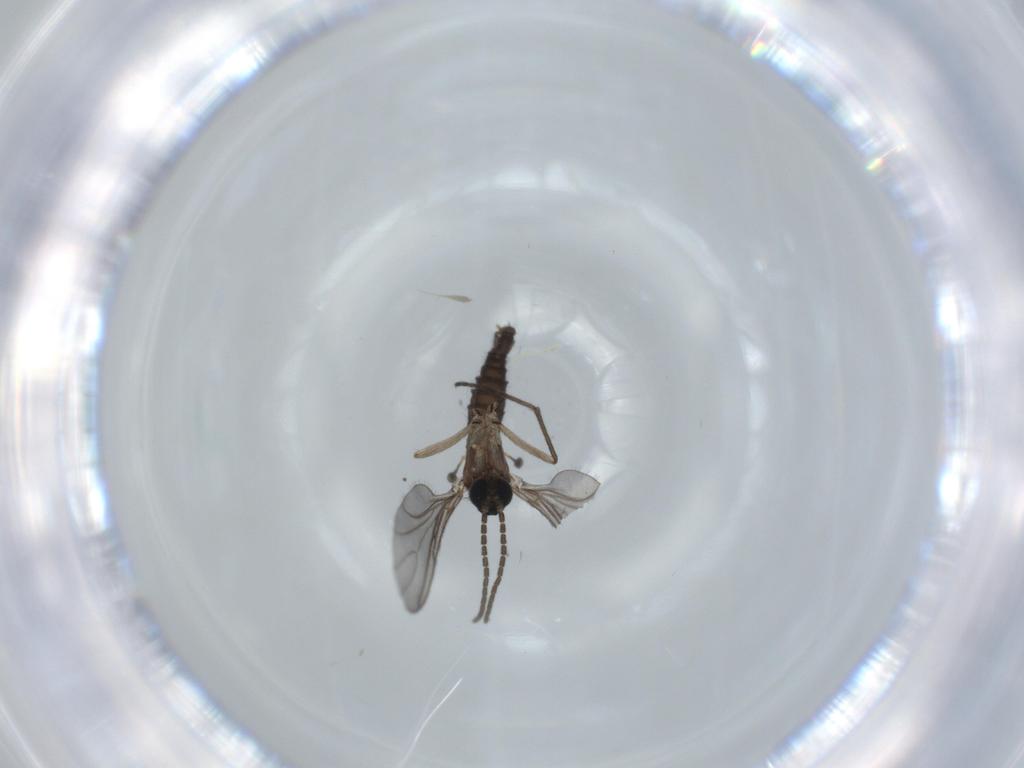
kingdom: Animalia
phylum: Arthropoda
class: Insecta
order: Diptera
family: Sciaridae
